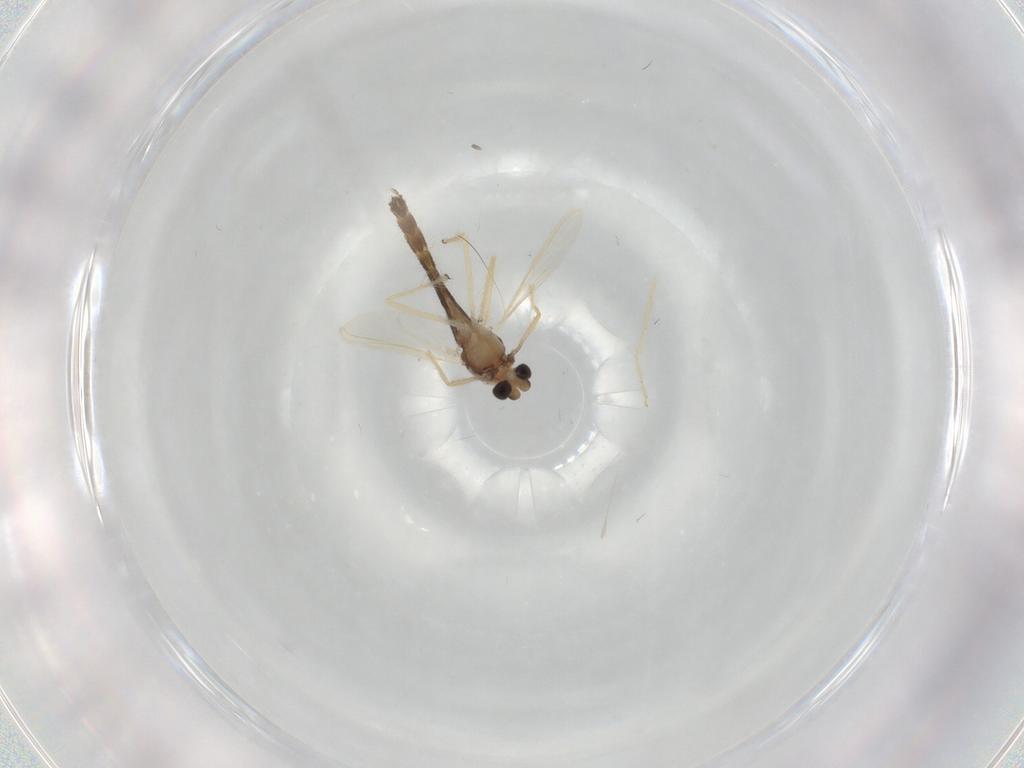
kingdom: Animalia
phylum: Arthropoda
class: Insecta
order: Diptera
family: Chironomidae
